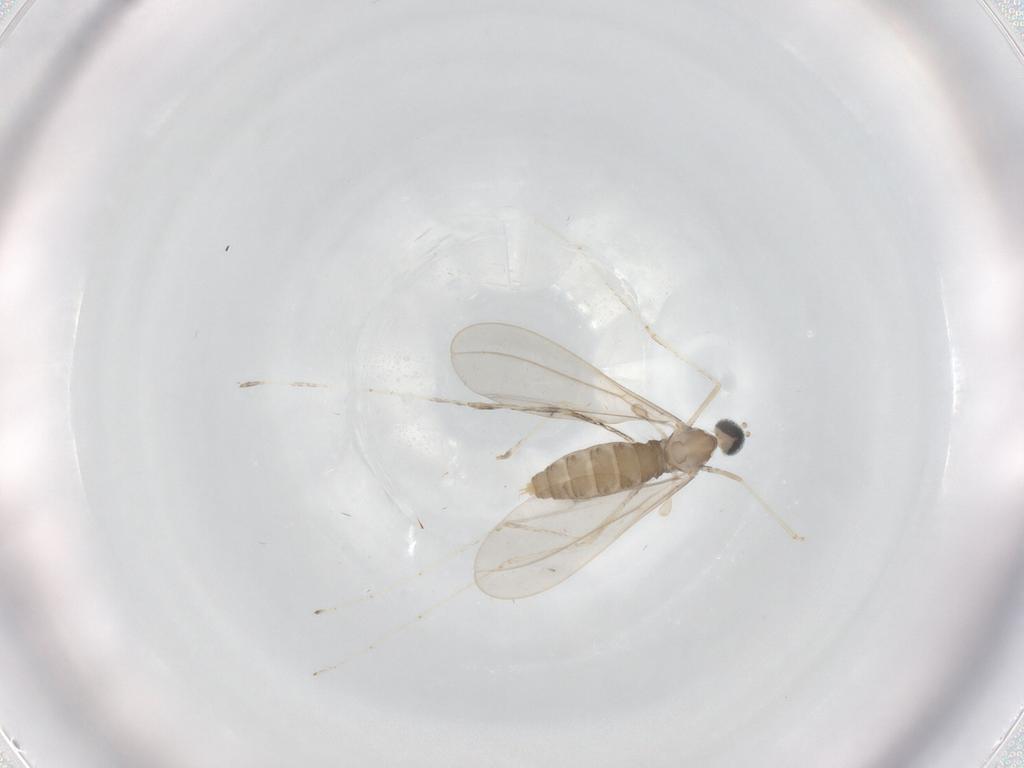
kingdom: Animalia
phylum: Arthropoda
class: Insecta
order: Diptera
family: Cecidomyiidae
